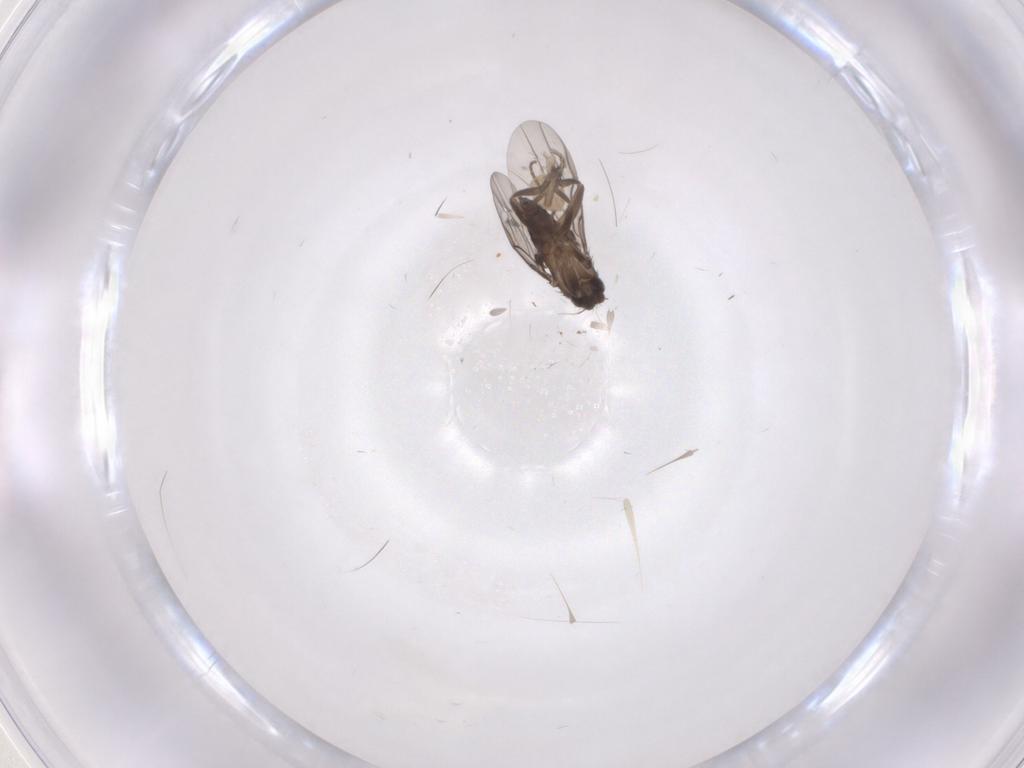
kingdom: Animalia
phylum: Arthropoda
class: Insecta
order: Diptera
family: Phoridae
